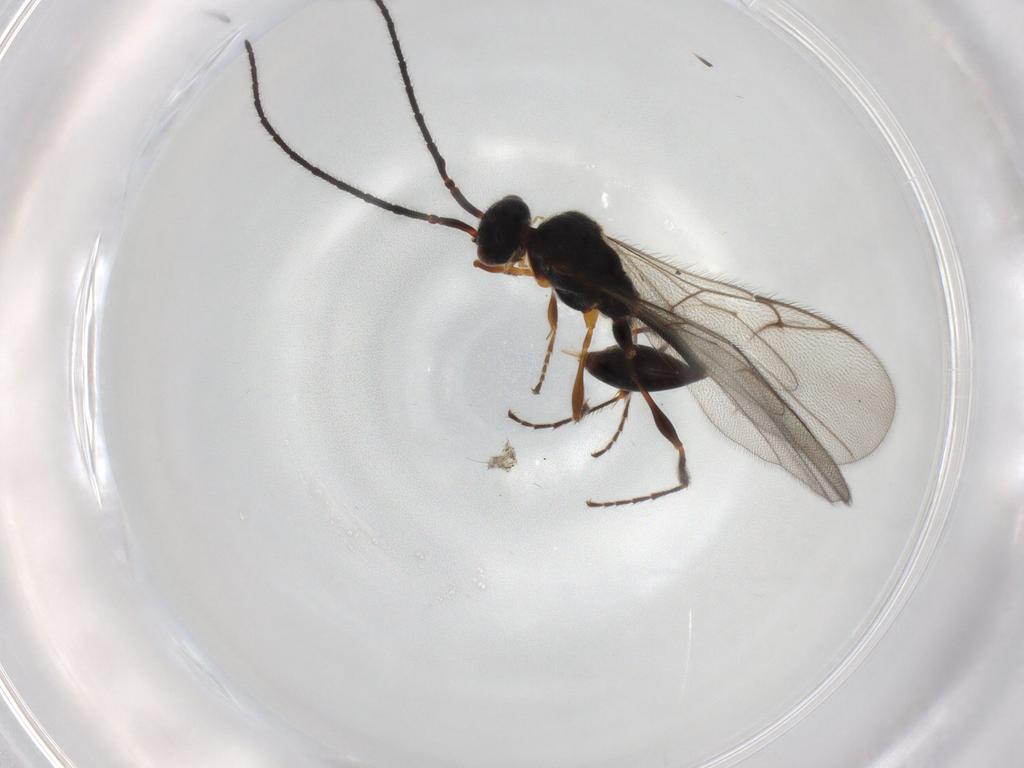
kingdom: Animalia
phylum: Arthropoda
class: Insecta
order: Hymenoptera
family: Diapriidae
